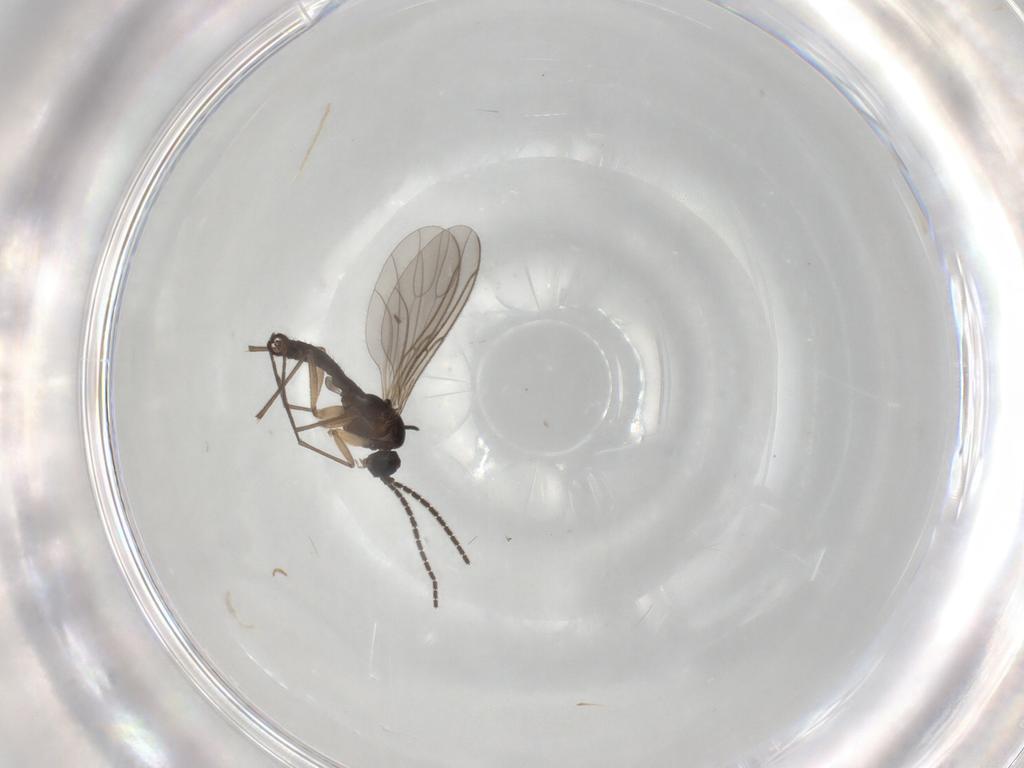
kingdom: Animalia
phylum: Arthropoda
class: Insecta
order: Diptera
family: Sciaridae
